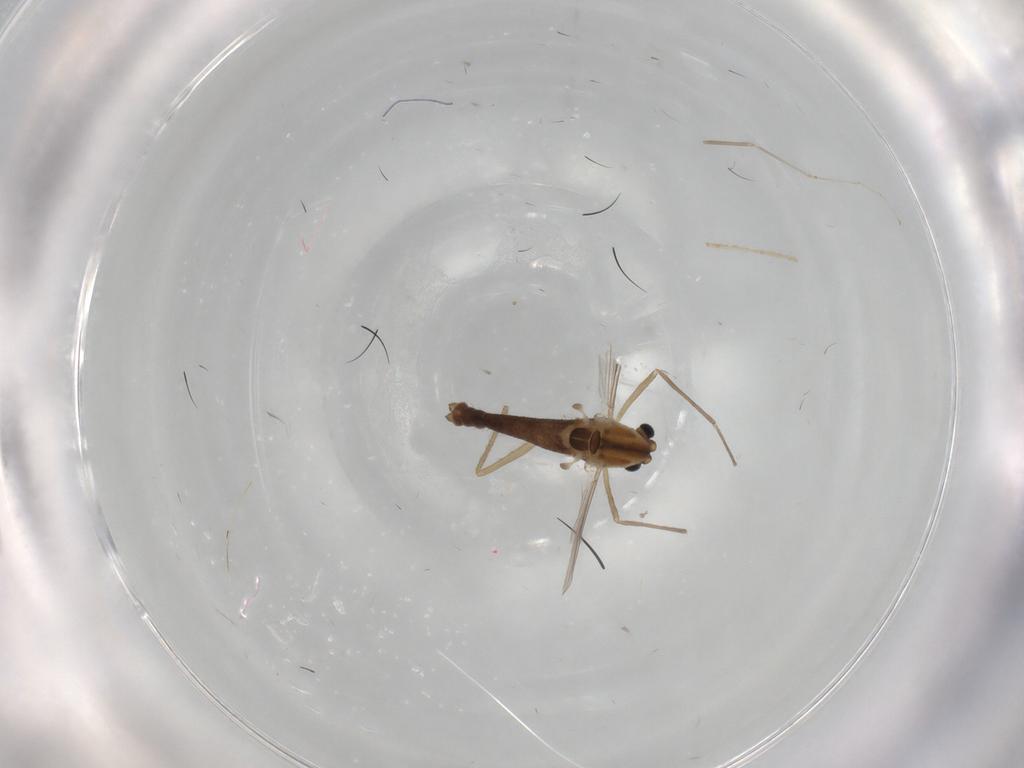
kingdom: Animalia
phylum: Arthropoda
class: Insecta
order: Diptera
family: Chironomidae
